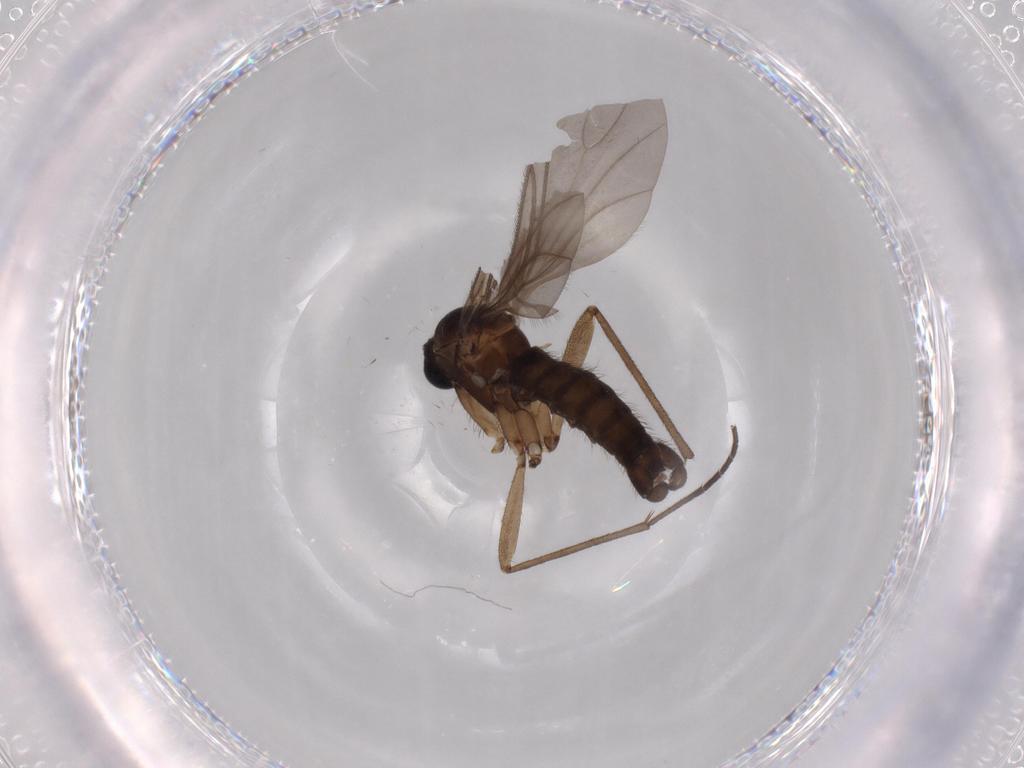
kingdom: Animalia
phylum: Arthropoda
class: Insecta
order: Diptera
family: Sciaridae
